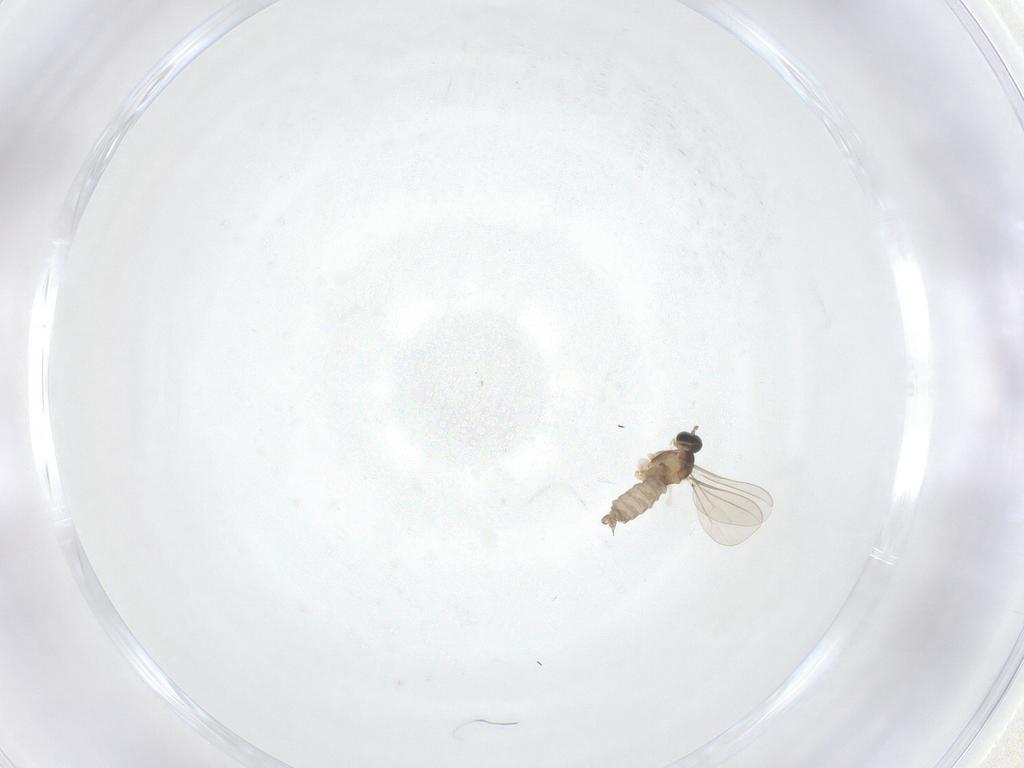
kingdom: Animalia
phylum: Arthropoda
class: Insecta
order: Diptera
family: Cecidomyiidae
